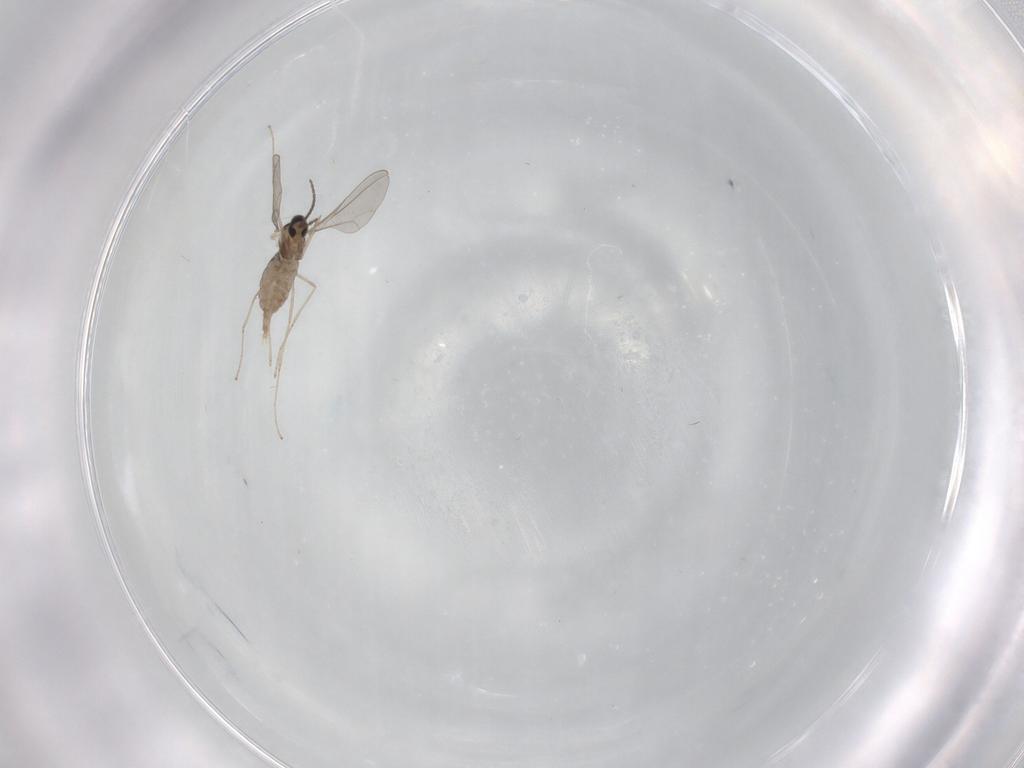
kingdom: Animalia
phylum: Arthropoda
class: Insecta
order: Diptera
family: Cecidomyiidae
